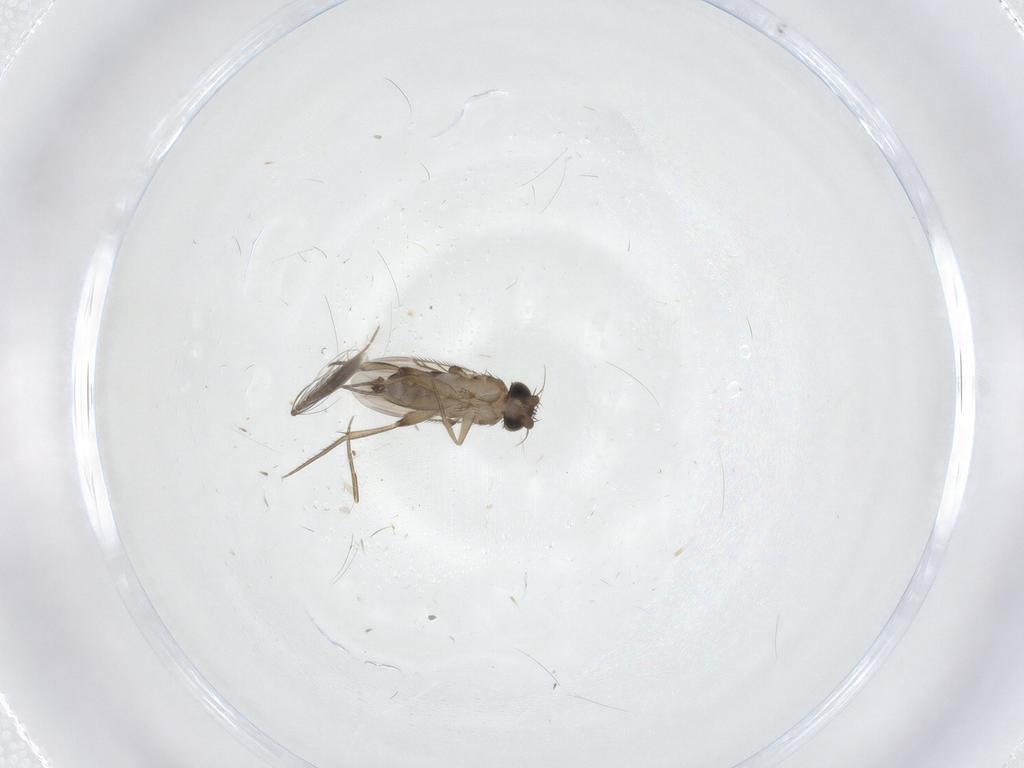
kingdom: Animalia
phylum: Arthropoda
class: Insecta
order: Diptera
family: Phoridae
